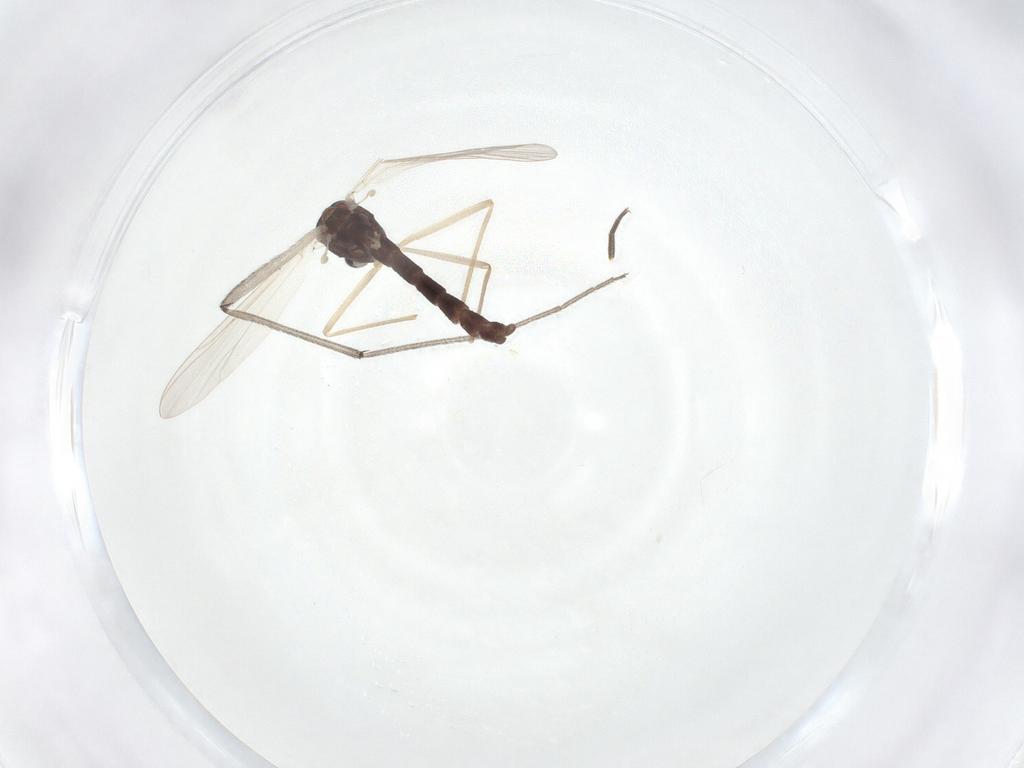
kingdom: Animalia
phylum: Arthropoda
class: Insecta
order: Diptera
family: Chironomidae
